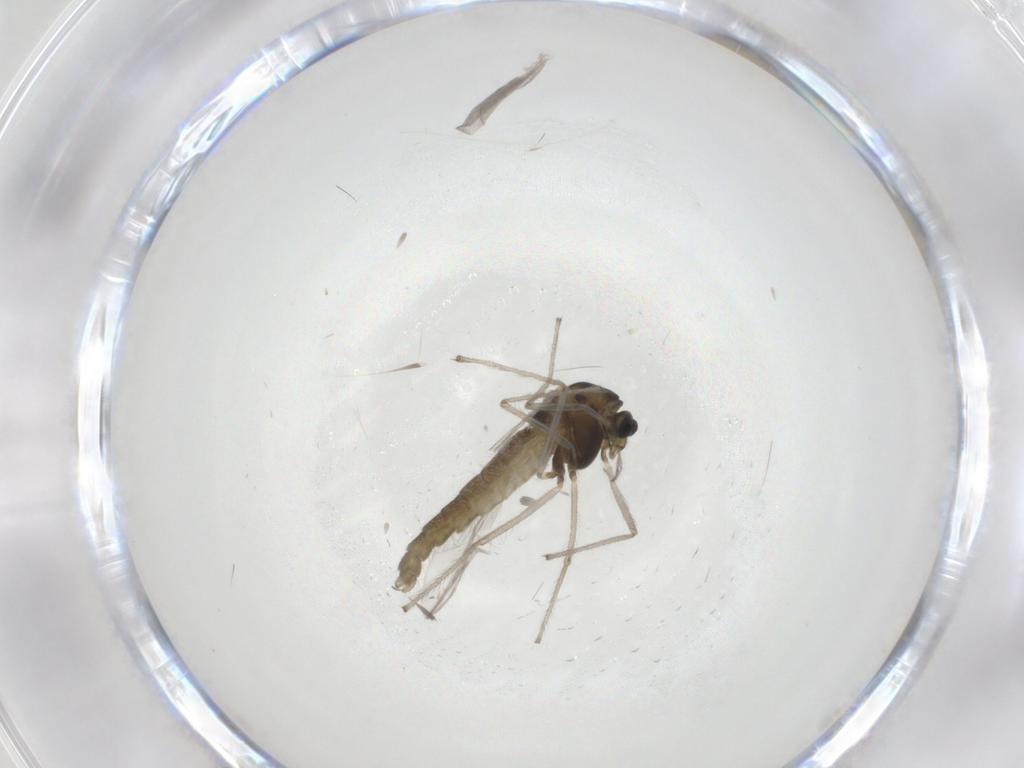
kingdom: Animalia
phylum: Arthropoda
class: Insecta
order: Diptera
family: Chironomidae
